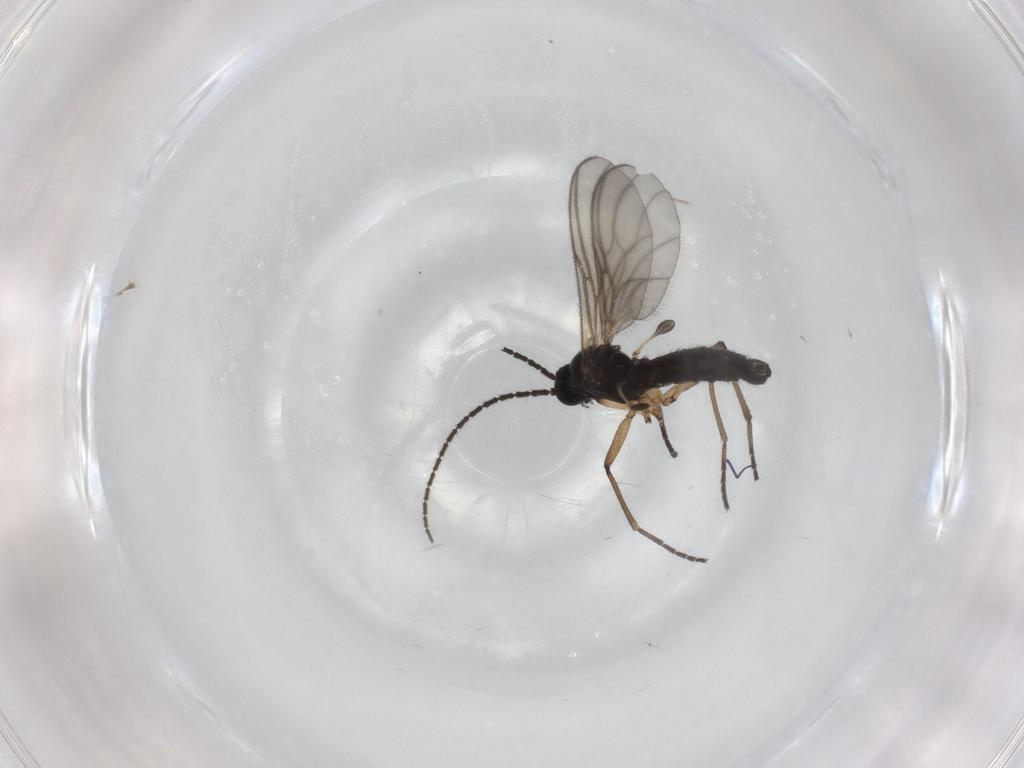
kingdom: Animalia
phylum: Arthropoda
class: Insecta
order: Diptera
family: Sciaridae
